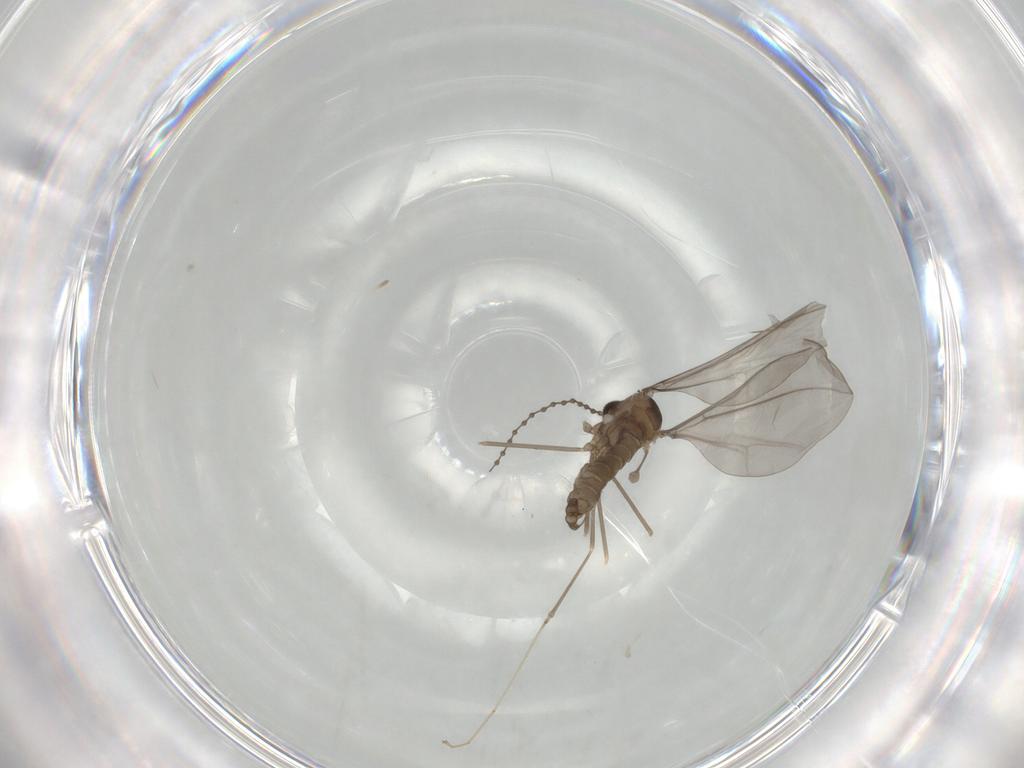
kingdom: Animalia
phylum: Arthropoda
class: Insecta
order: Diptera
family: Cecidomyiidae
